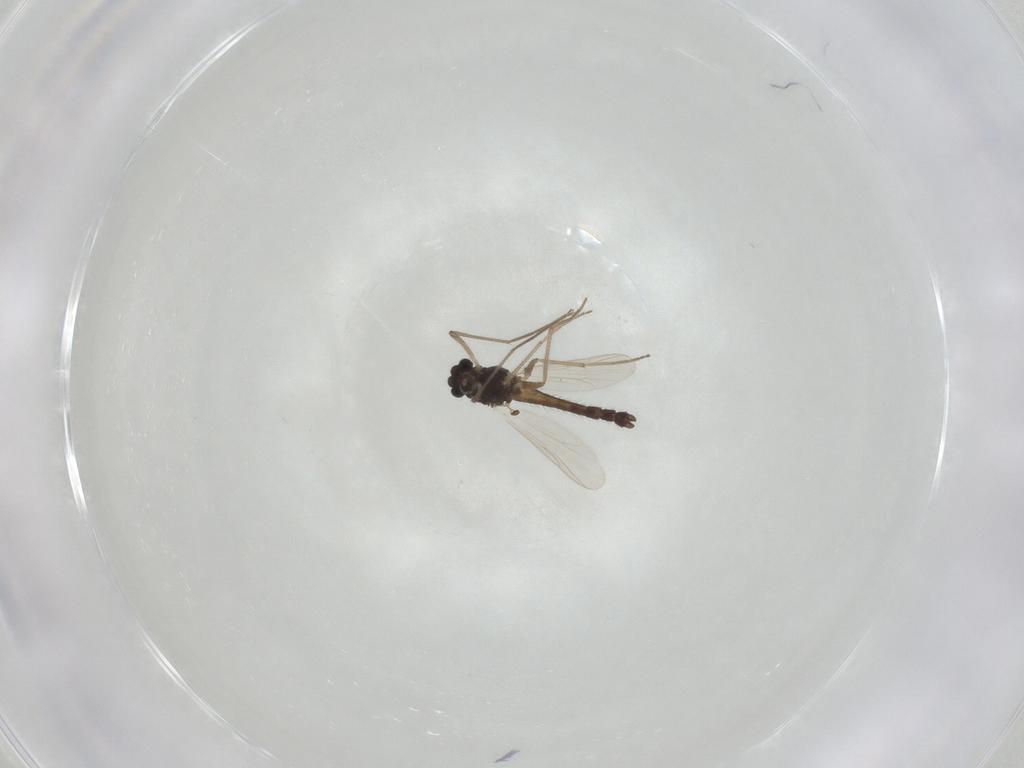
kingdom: Animalia
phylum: Arthropoda
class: Insecta
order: Diptera
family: Chironomidae
